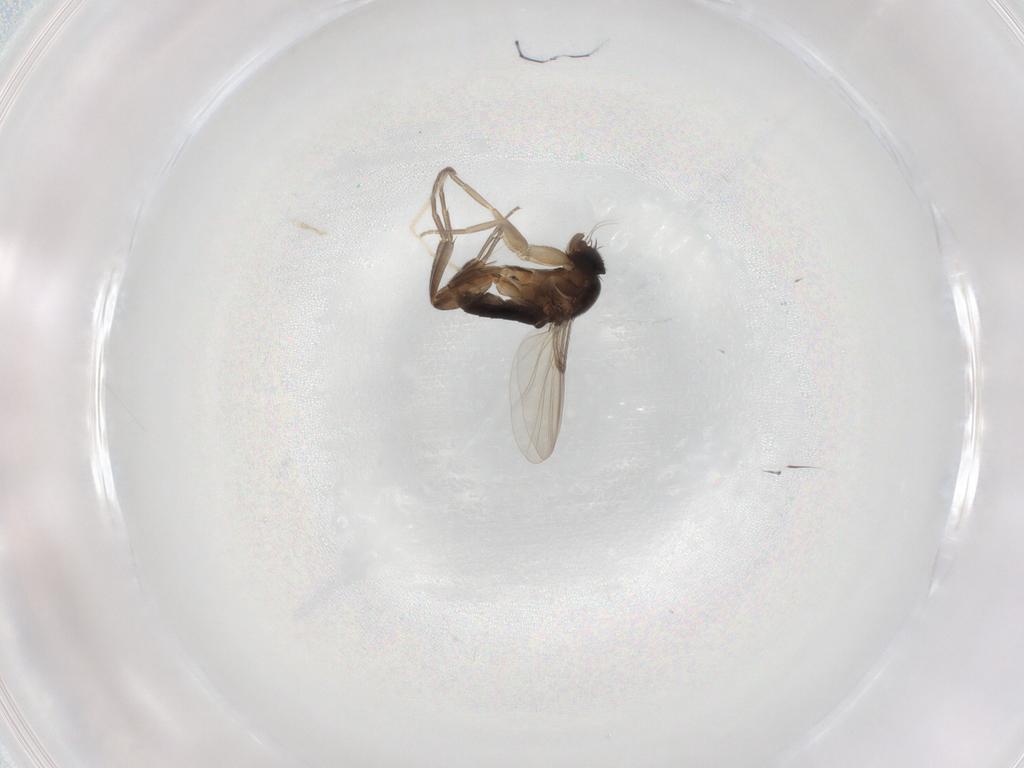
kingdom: Animalia
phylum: Arthropoda
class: Insecta
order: Diptera
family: Phoridae
